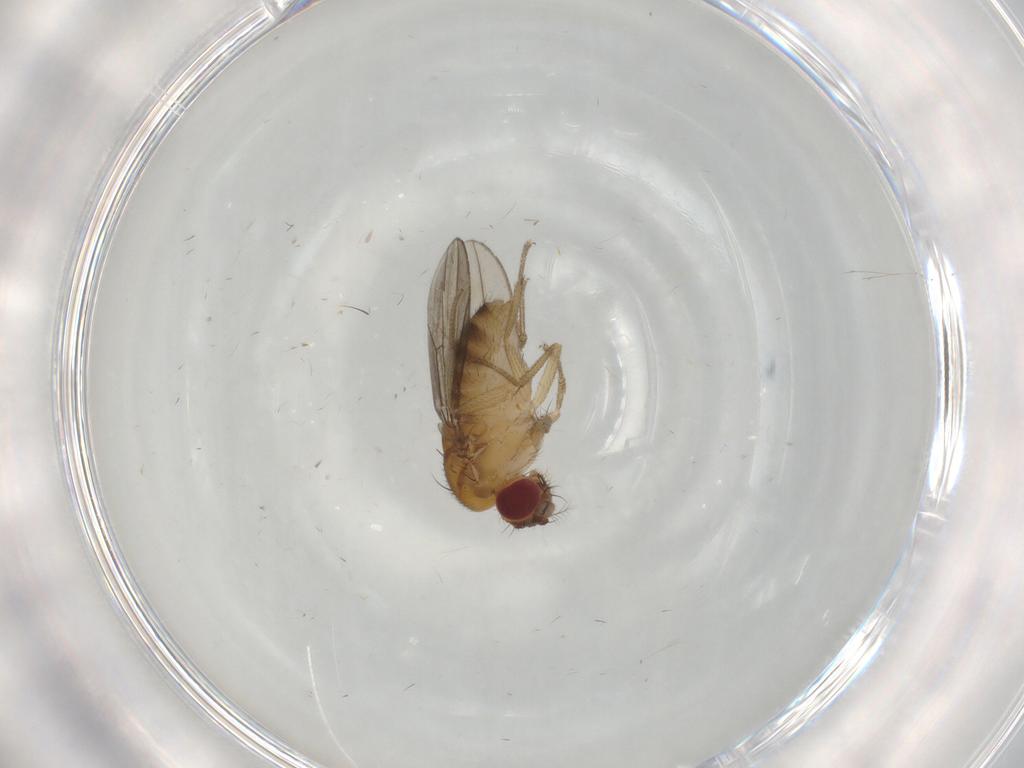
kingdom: Animalia
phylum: Arthropoda
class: Insecta
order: Diptera
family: Drosophilidae
